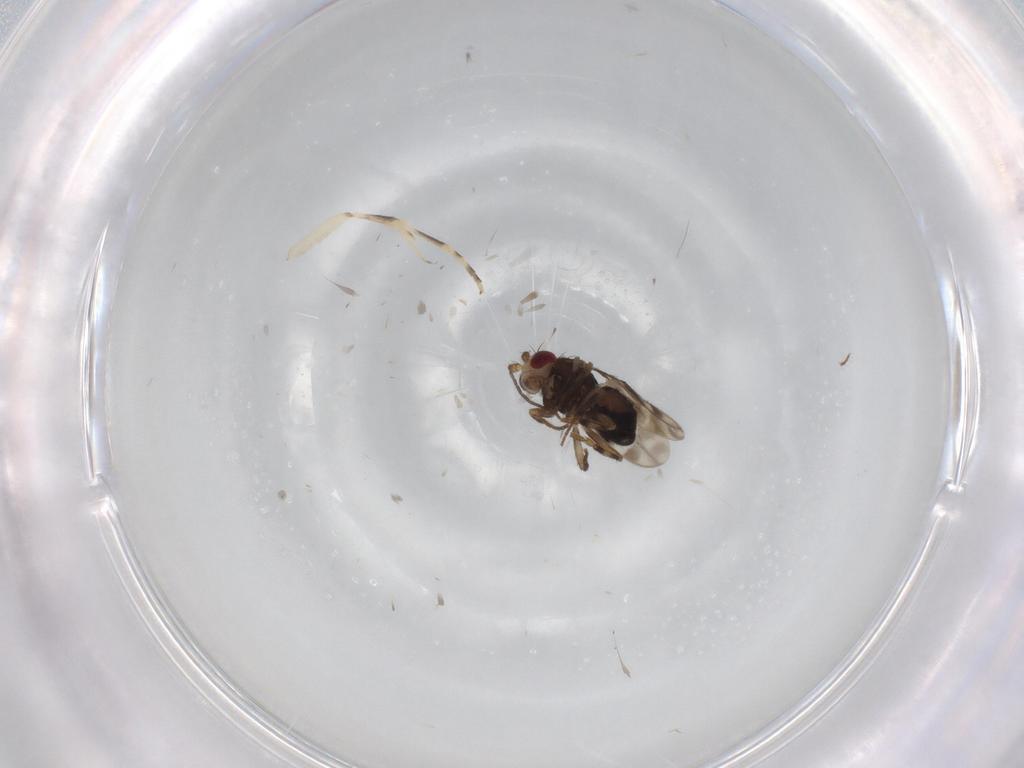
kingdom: Animalia
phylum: Arthropoda
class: Insecta
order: Diptera
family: Sphaeroceridae
